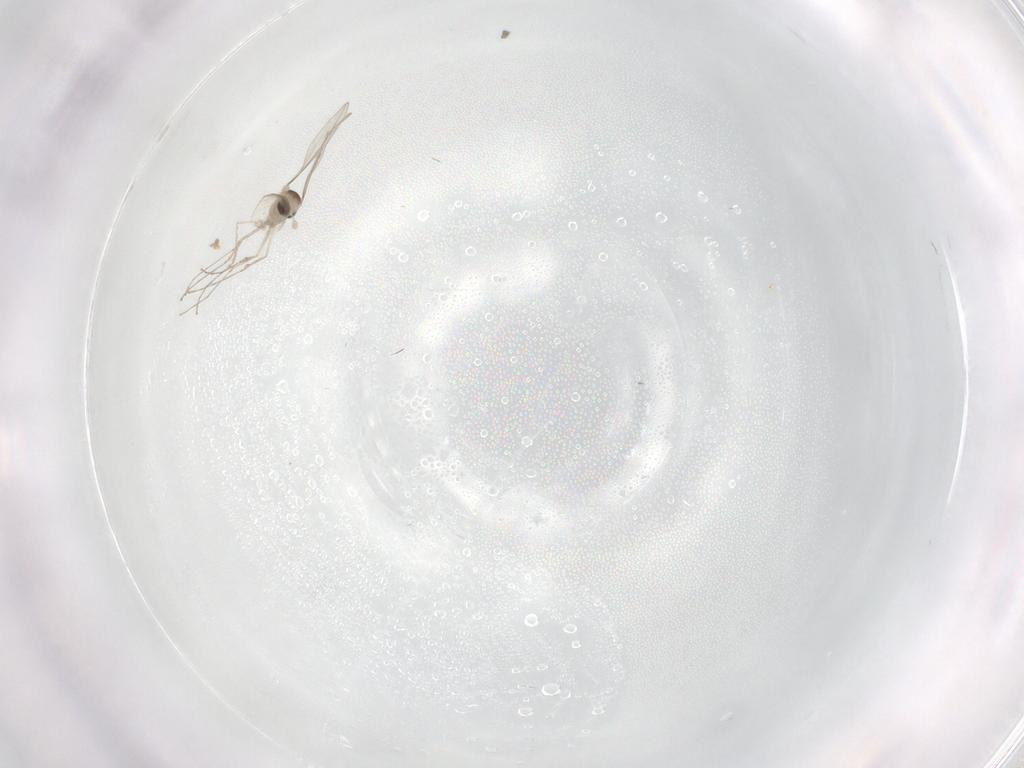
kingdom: Animalia
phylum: Arthropoda
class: Insecta
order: Diptera
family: Cecidomyiidae
